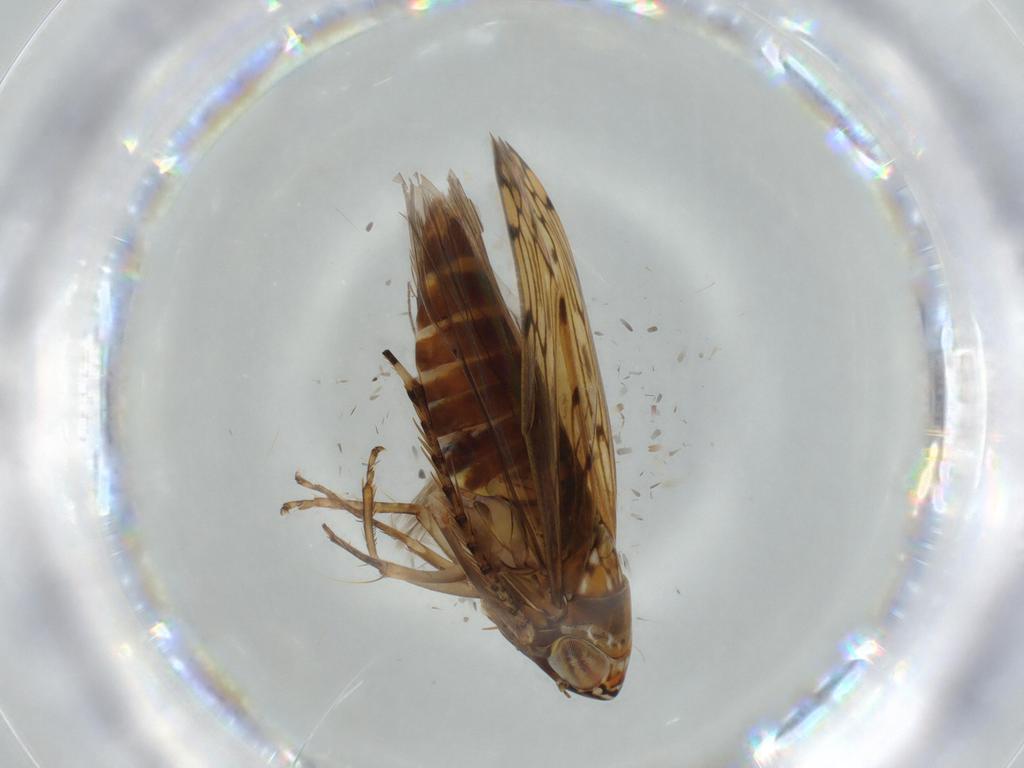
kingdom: Animalia
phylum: Arthropoda
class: Insecta
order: Hemiptera
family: Cicadellidae
